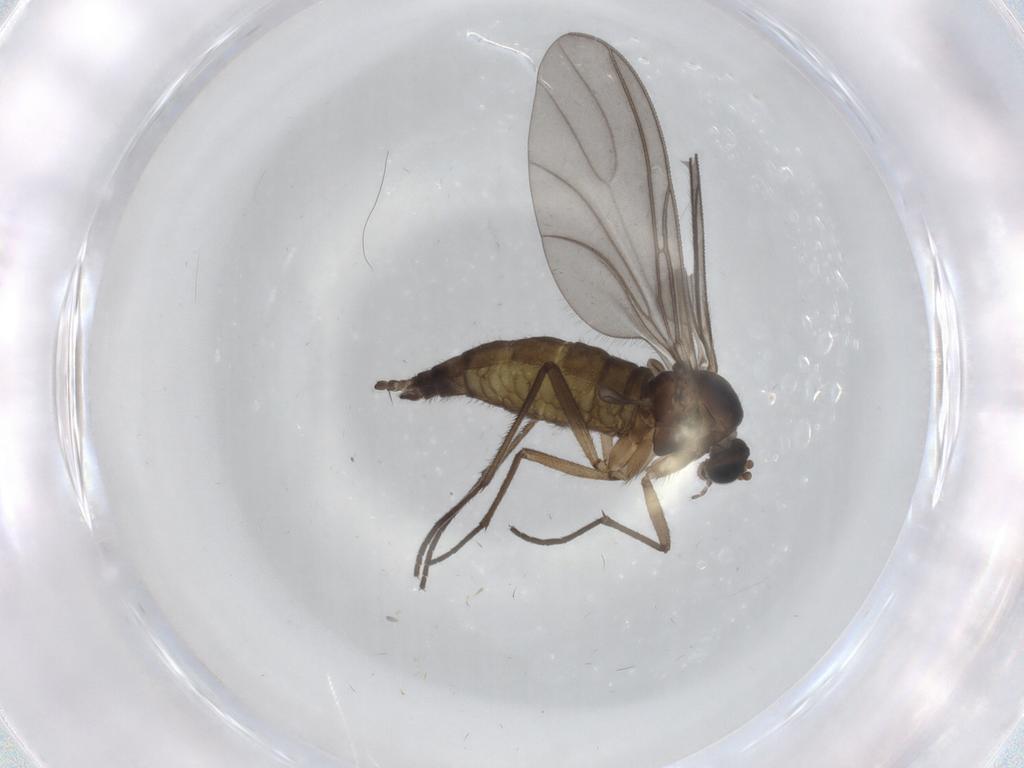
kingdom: Animalia
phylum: Arthropoda
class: Insecta
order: Diptera
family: Sciaridae
